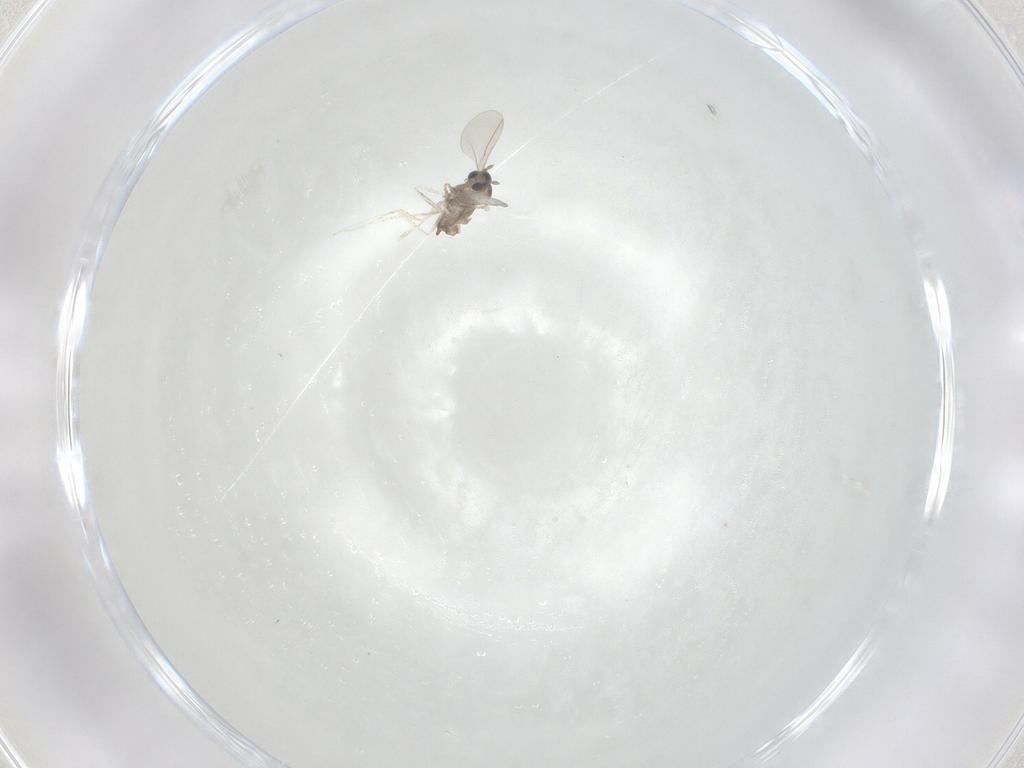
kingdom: Animalia
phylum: Arthropoda
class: Insecta
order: Diptera
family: Cecidomyiidae
